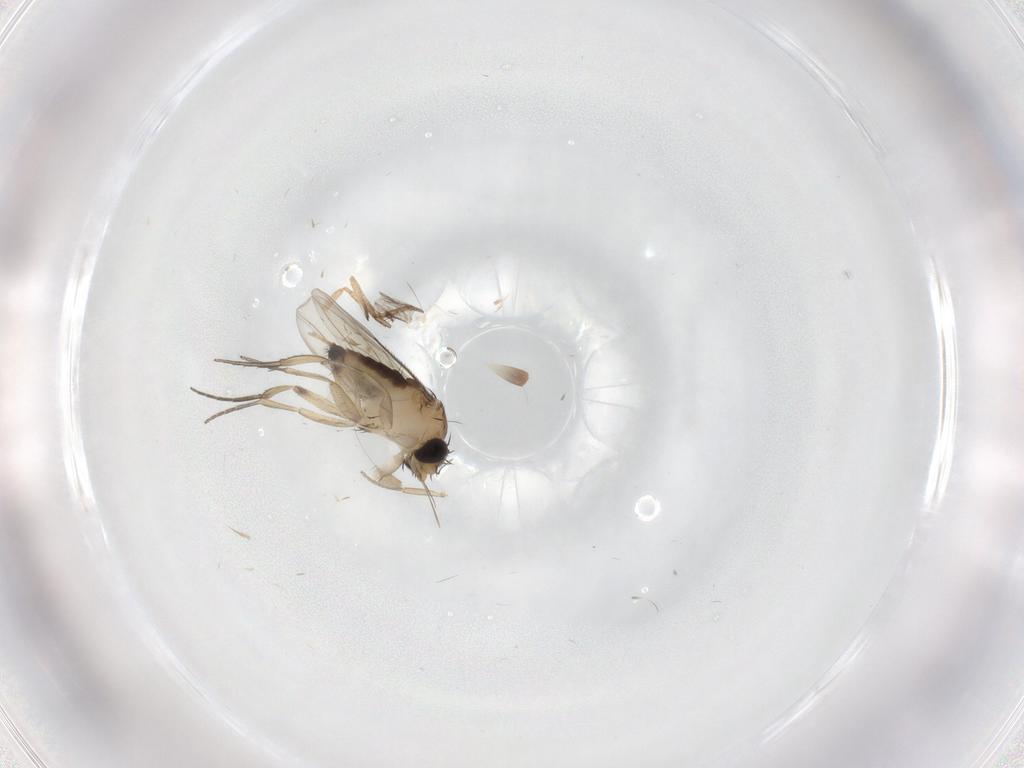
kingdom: Animalia
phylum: Arthropoda
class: Insecta
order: Diptera
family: Phoridae
